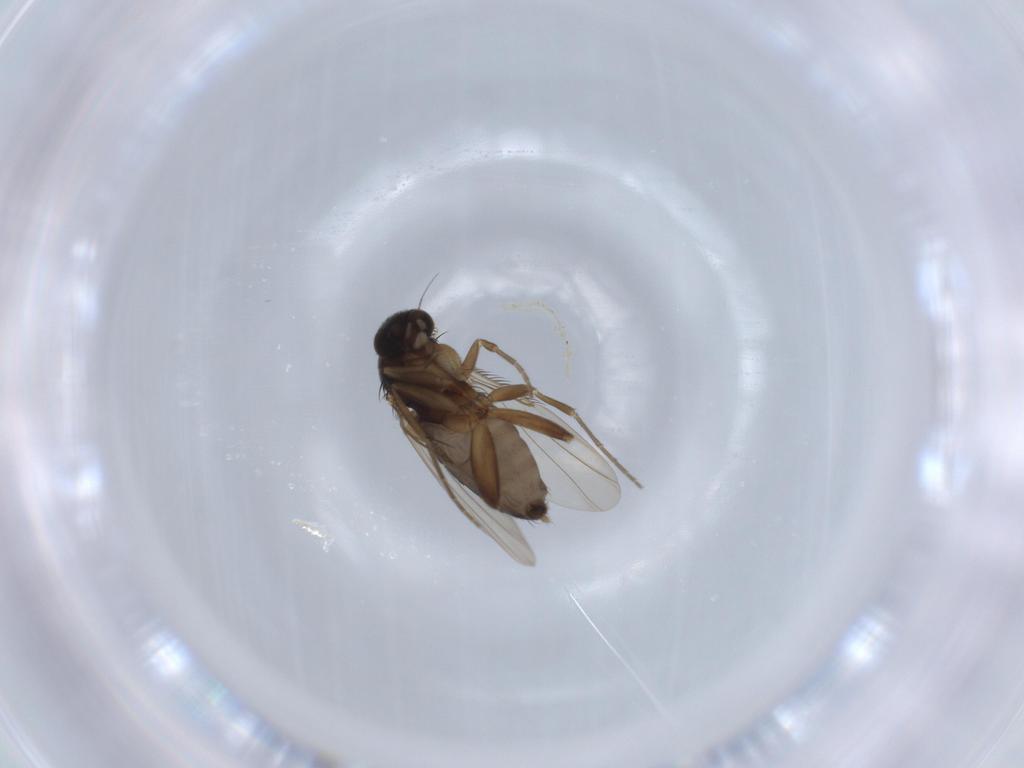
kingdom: Animalia
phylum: Arthropoda
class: Insecta
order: Diptera
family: Phoridae
